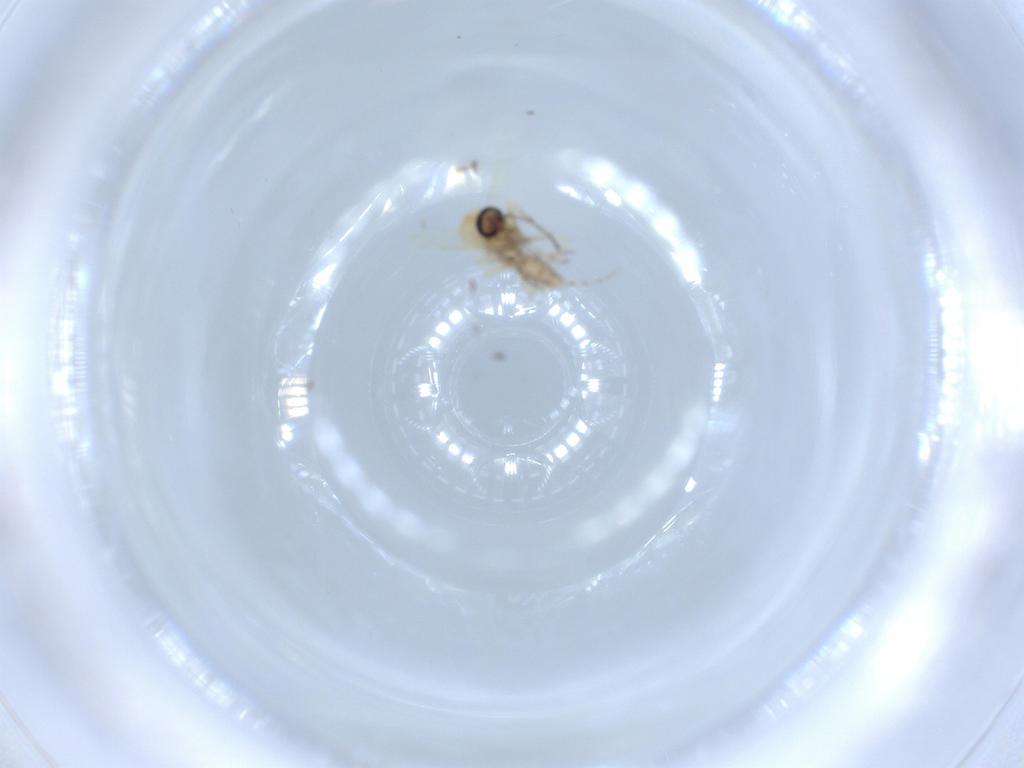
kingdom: Animalia
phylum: Arthropoda
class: Insecta
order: Diptera
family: Ceratopogonidae
